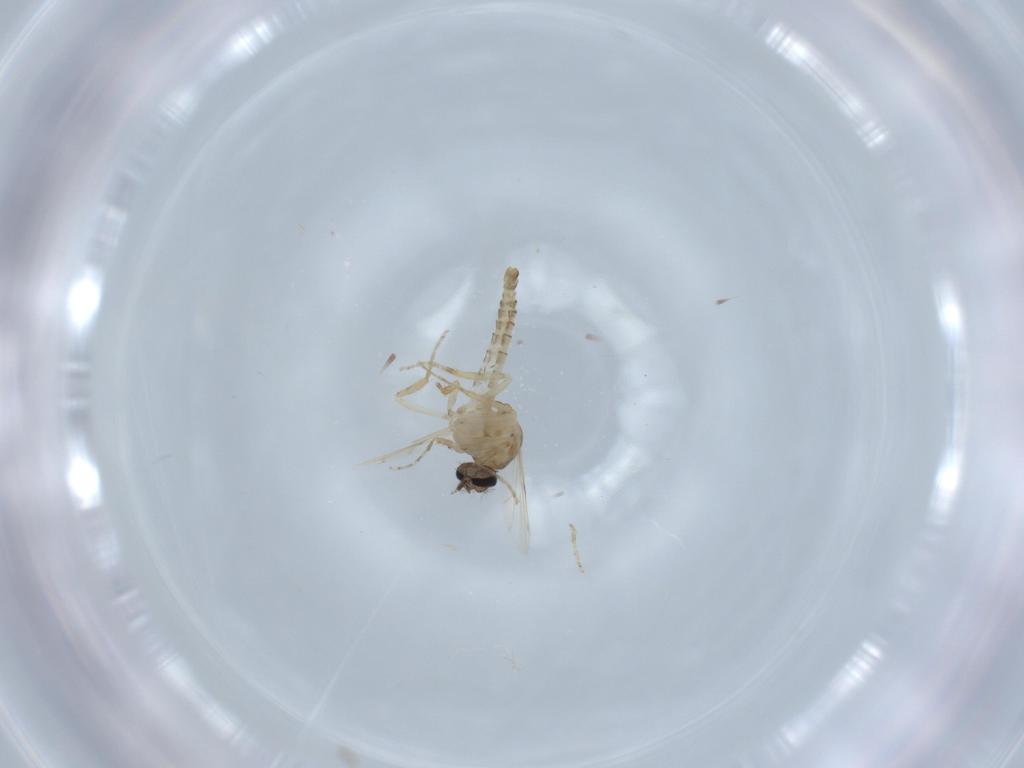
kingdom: Animalia
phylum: Arthropoda
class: Insecta
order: Diptera
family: Ceratopogonidae
